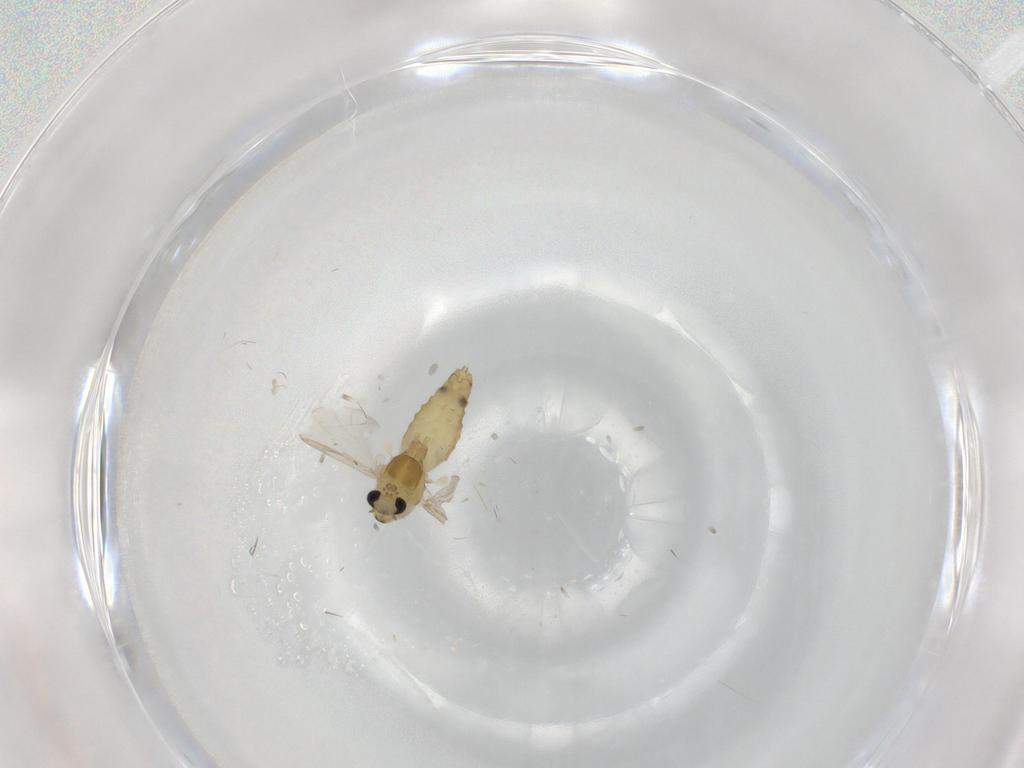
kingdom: Animalia
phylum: Arthropoda
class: Insecta
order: Diptera
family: Chironomidae
